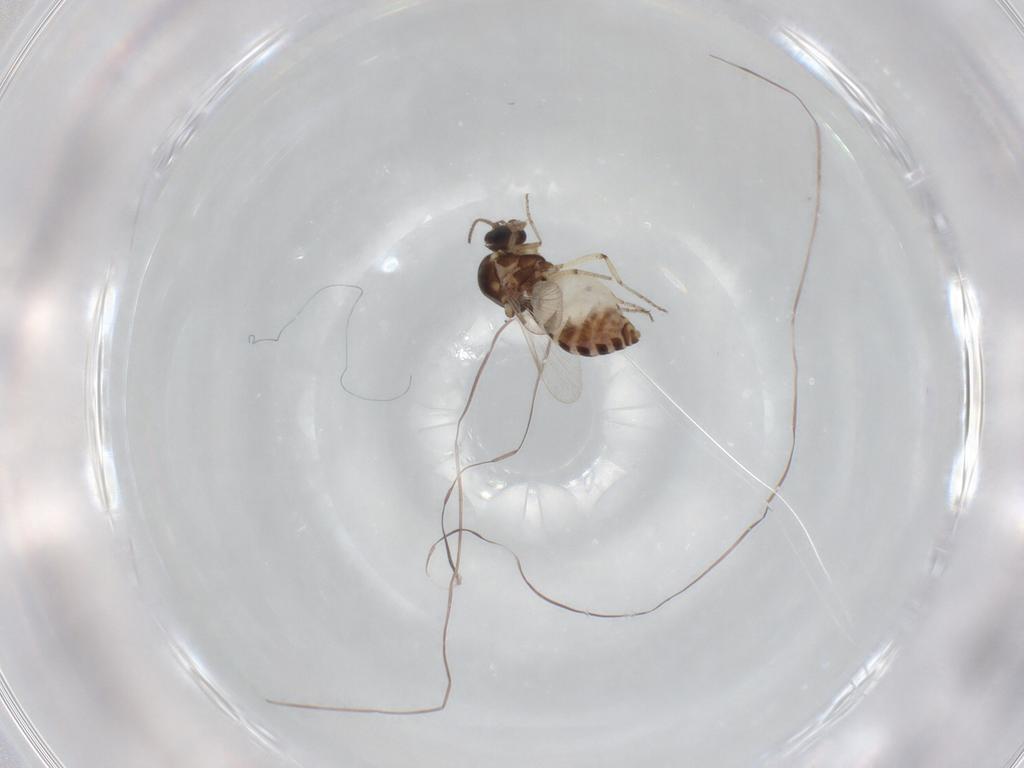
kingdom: Animalia
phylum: Arthropoda
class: Insecta
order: Diptera
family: Ceratopogonidae
